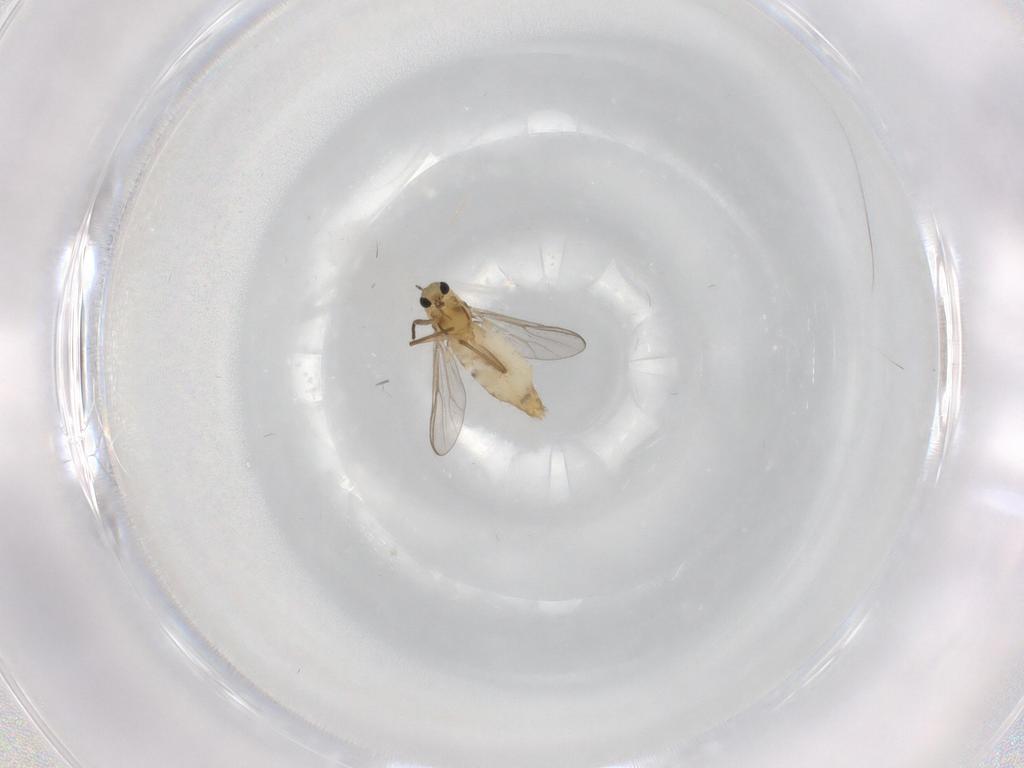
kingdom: Animalia
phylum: Arthropoda
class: Insecta
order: Diptera
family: Chironomidae
